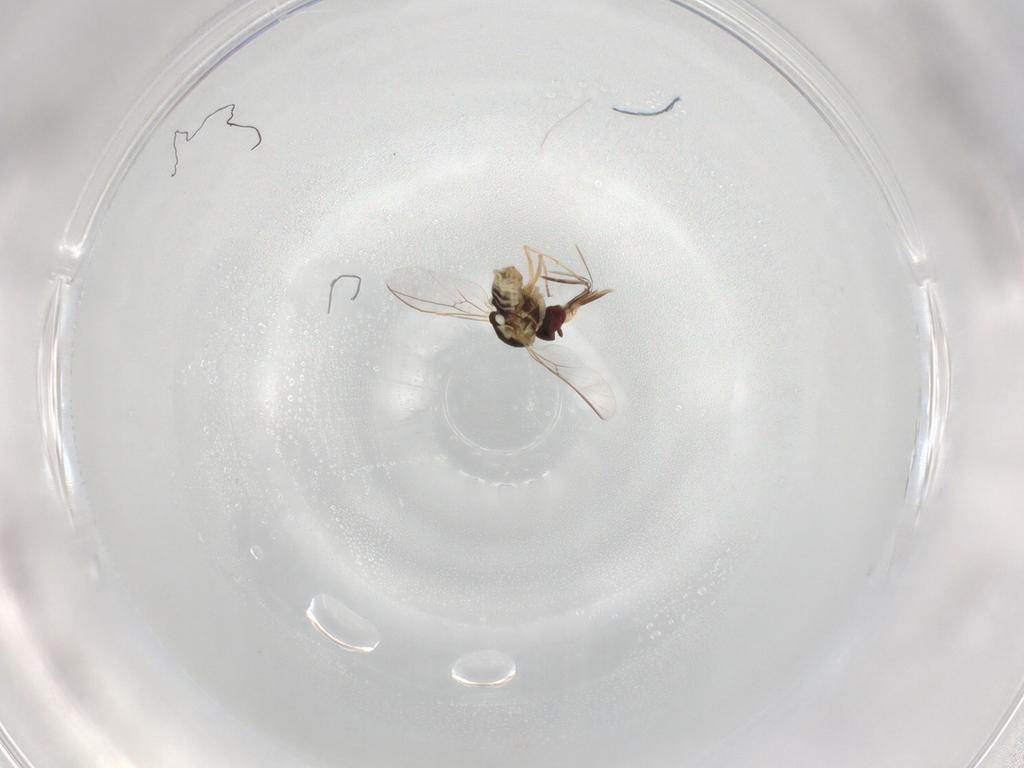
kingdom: Animalia
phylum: Arthropoda
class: Insecta
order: Diptera
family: Bombyliidae
